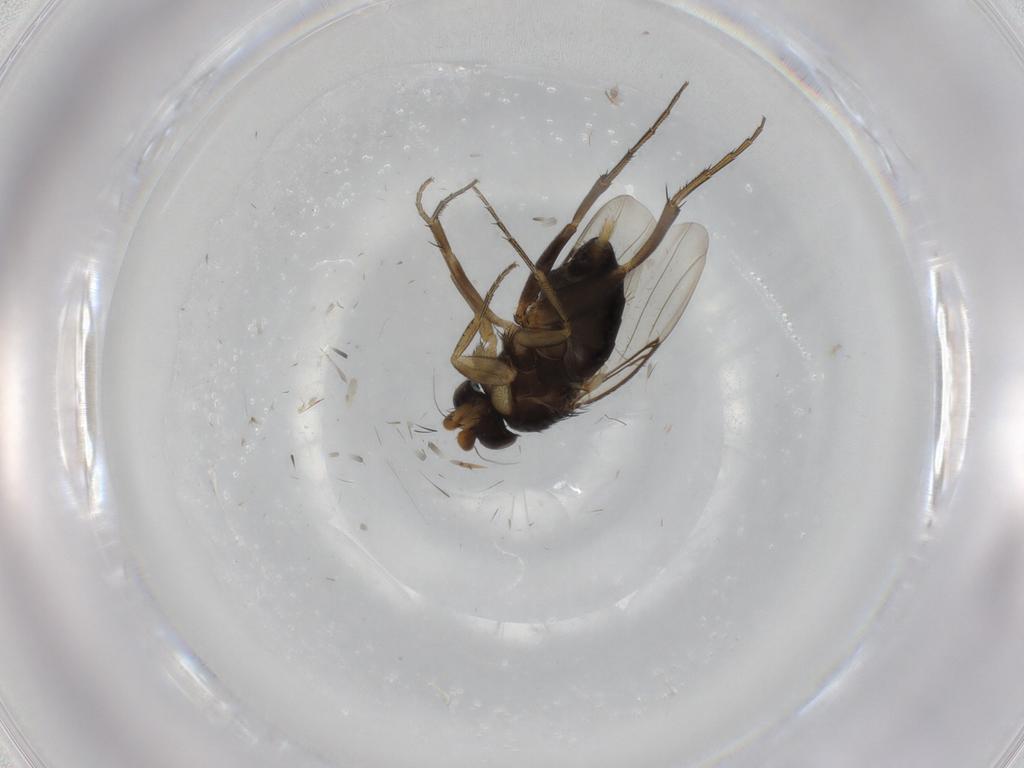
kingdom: Animalia
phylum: Arthropoda
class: Insecta
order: Diptera
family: Phoridae
